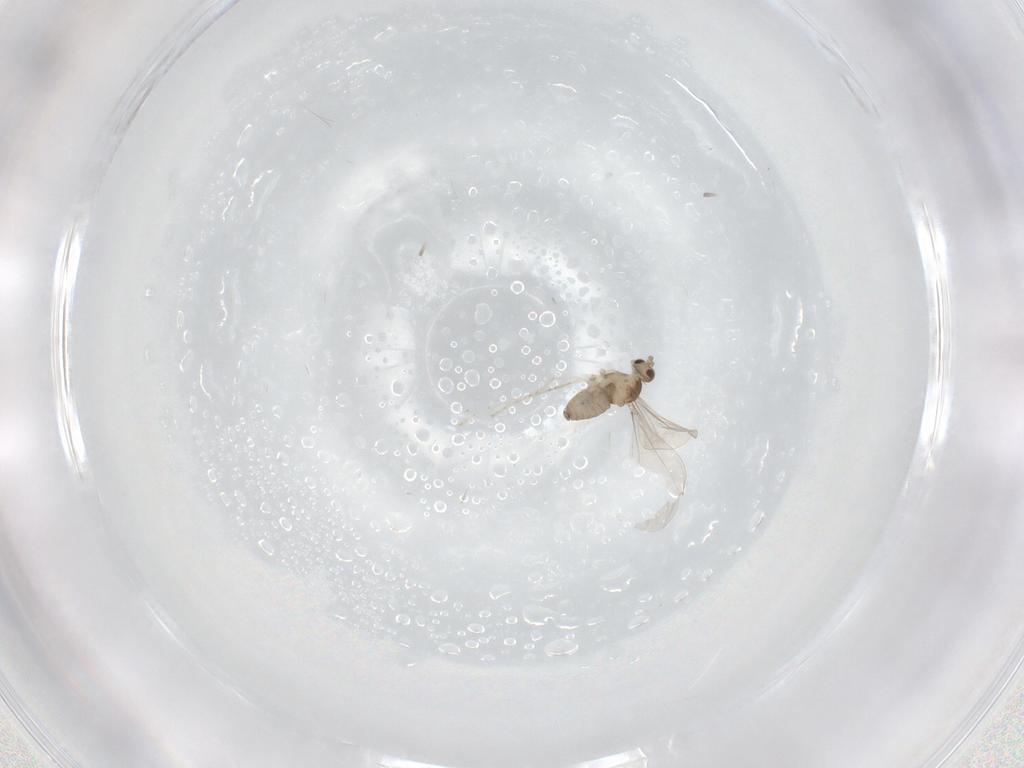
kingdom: Animalia
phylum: Arthropoda
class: Insecta
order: Diptera
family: Cecidomyiidae
